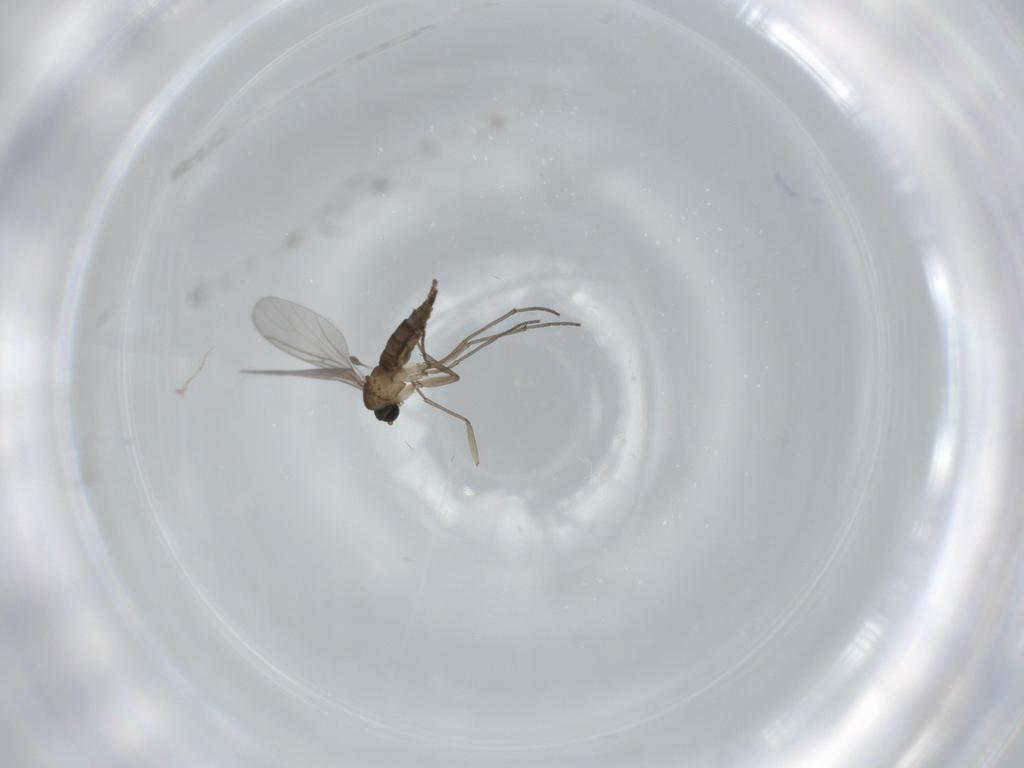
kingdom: Animalia
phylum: Arthropoda
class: Insecta
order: Diptera
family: Sciaridae
